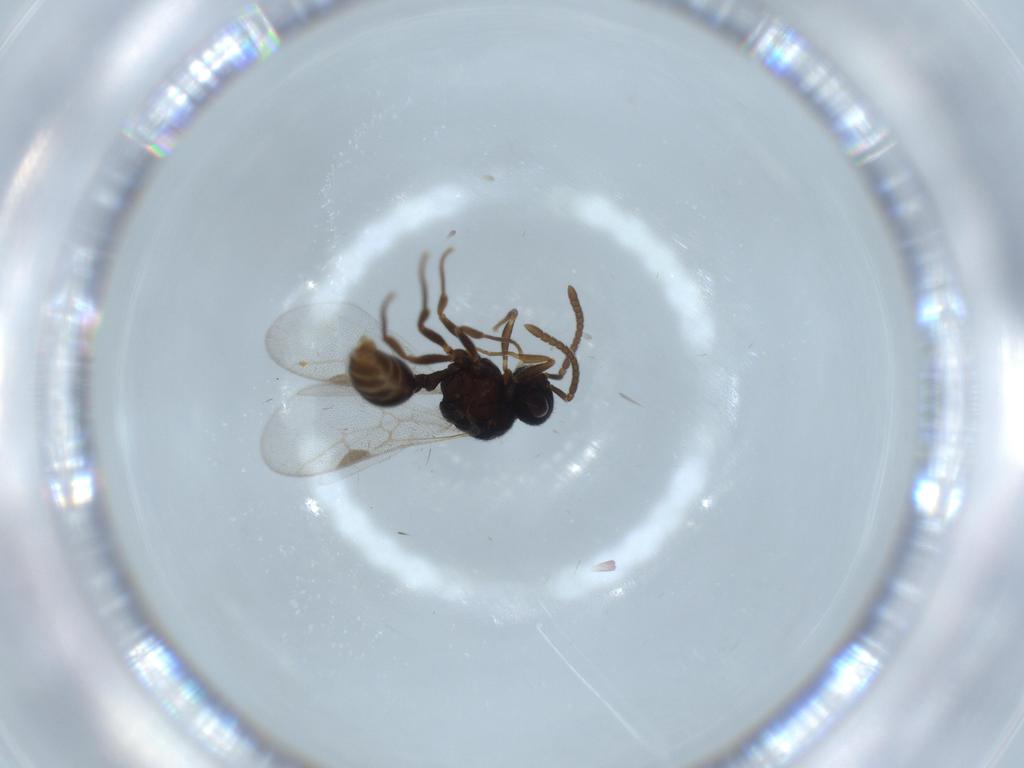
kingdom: Animalia
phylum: Arthropoda
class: Insecta
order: Hymenoptera
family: Formicidae
